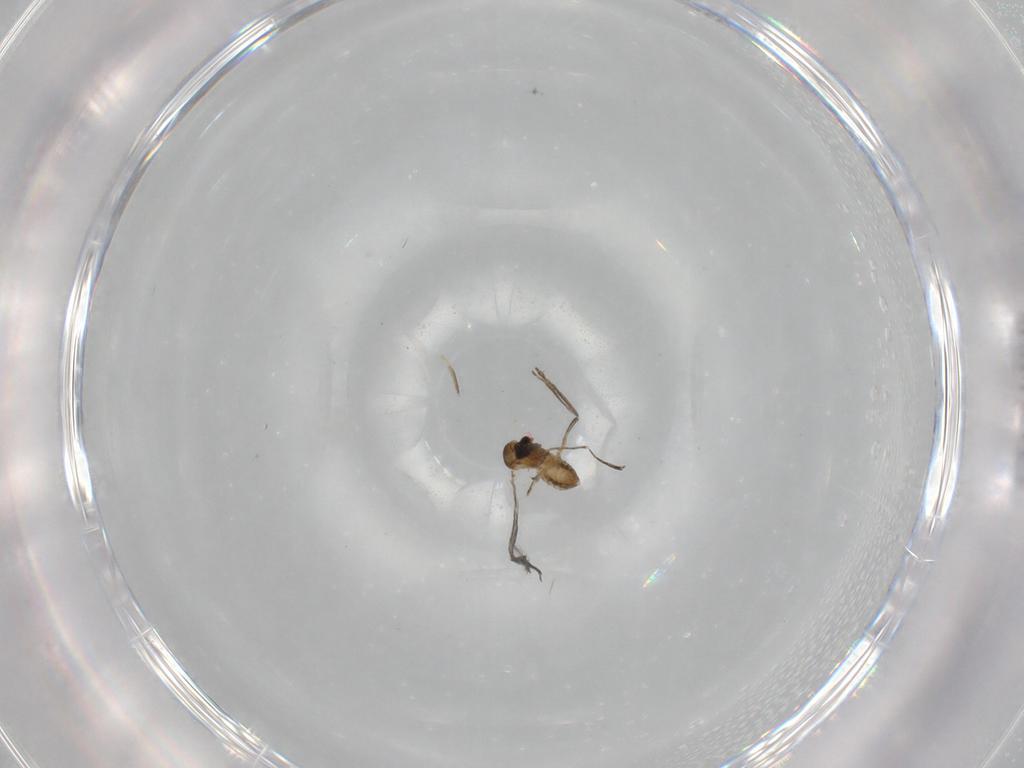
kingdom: Animalia
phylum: Arthropoda
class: Insecta
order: Diptera
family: Cecidomyiidae
